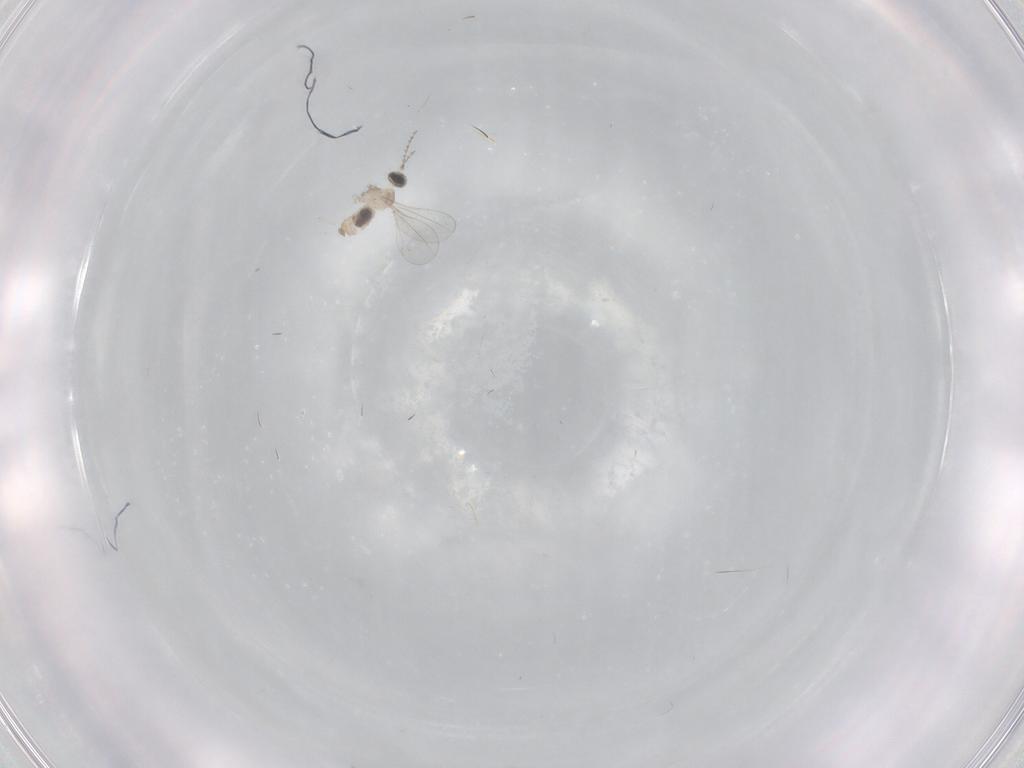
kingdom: Animalia
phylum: Arthropoda
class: Insecta
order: Diptera
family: Cecidomyiidae
